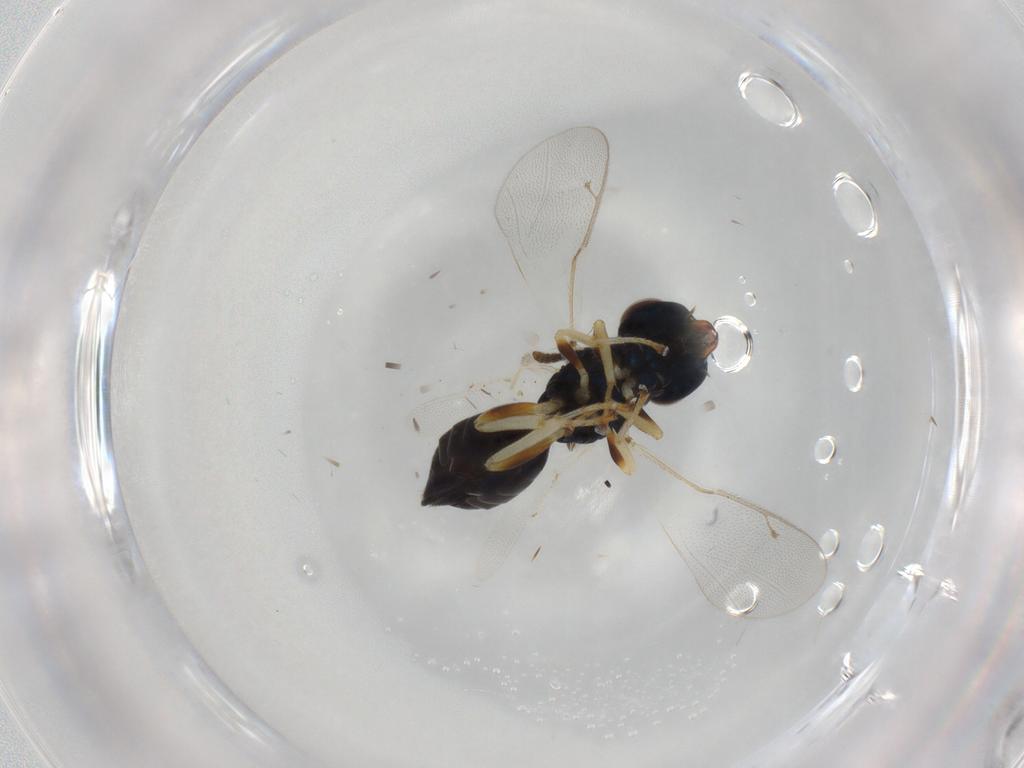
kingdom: Animalia
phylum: Arthropoda
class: Insecta
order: Hymenoptera
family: Pteromalidae
